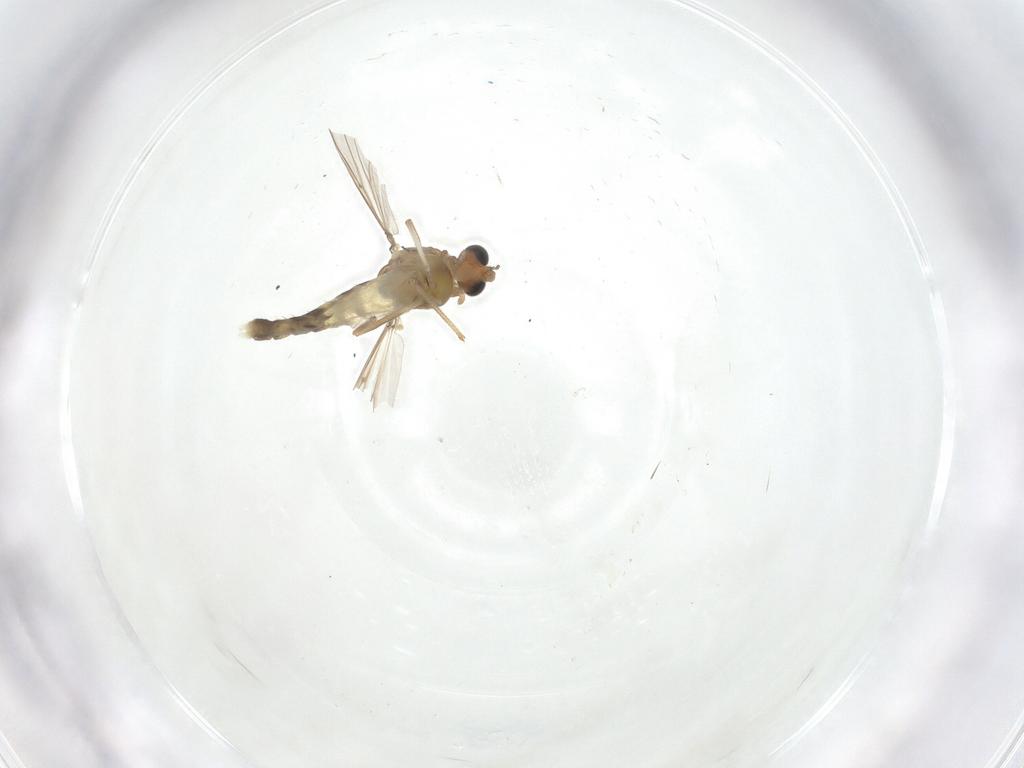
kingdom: Animalia
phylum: Arthropoda
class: Insecta
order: Diptera
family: Chironomidae
